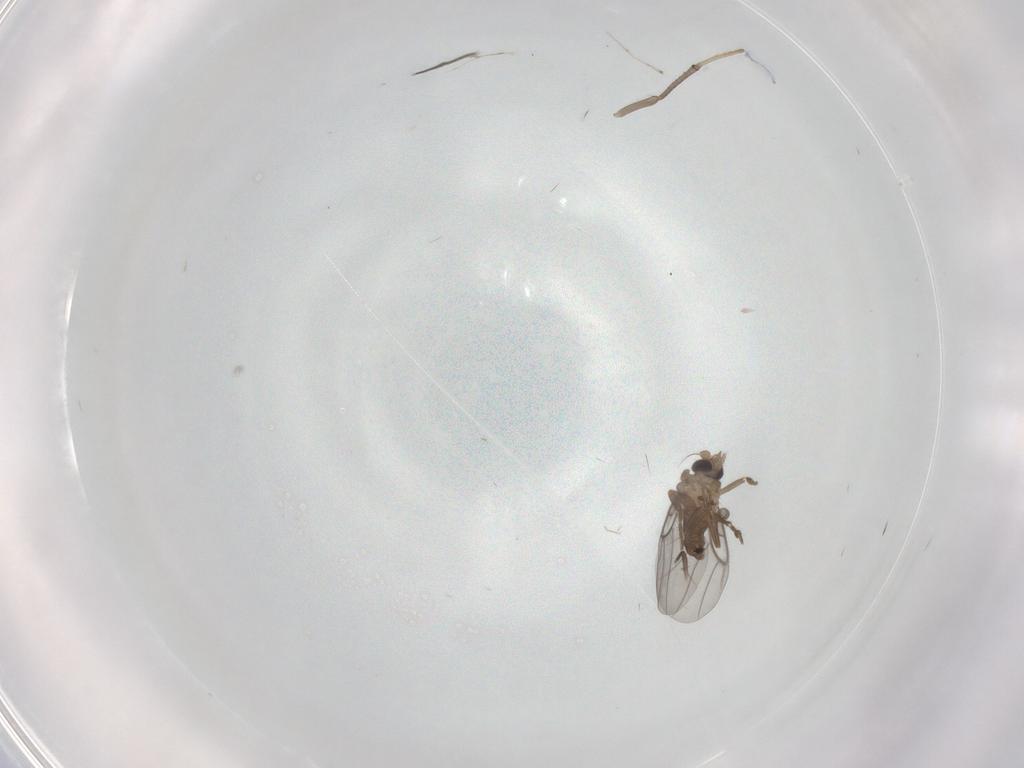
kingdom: Animalia
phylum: Arthropoda
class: Insecta
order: Diptera
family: Chironomidae
